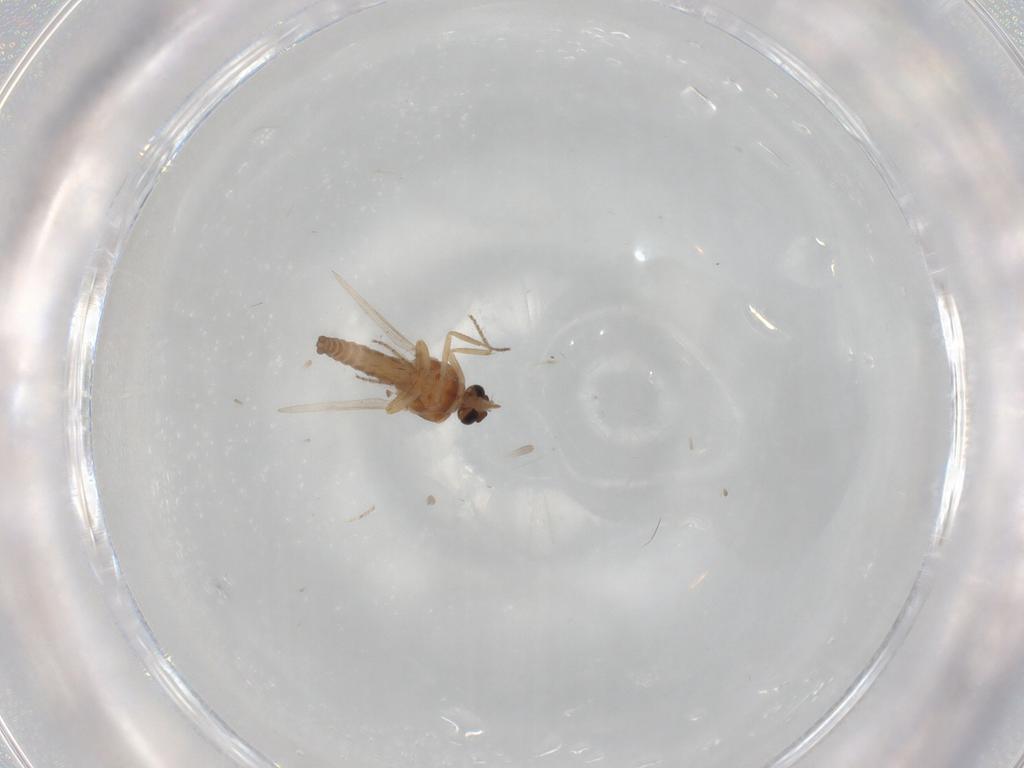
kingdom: Animalia
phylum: Arthropoda
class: Insecta
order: Diptera
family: Ceratopogonidae
